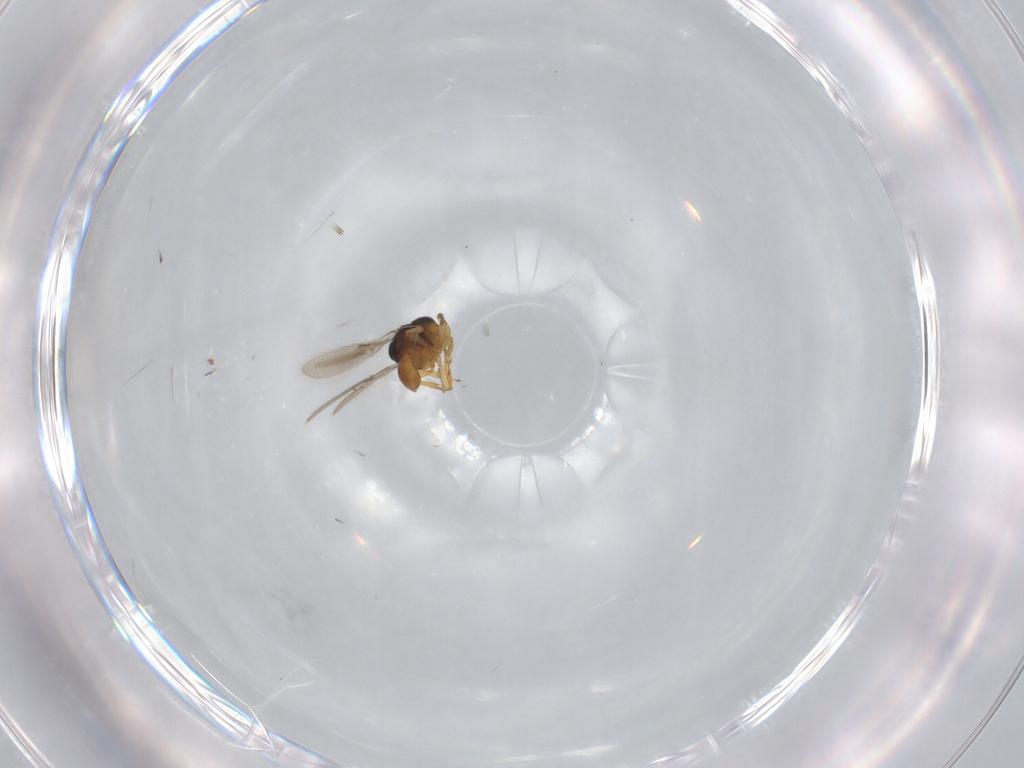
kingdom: Animalia
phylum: Arthropoda
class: Insecta
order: Hymenoptera
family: Scelionidae
